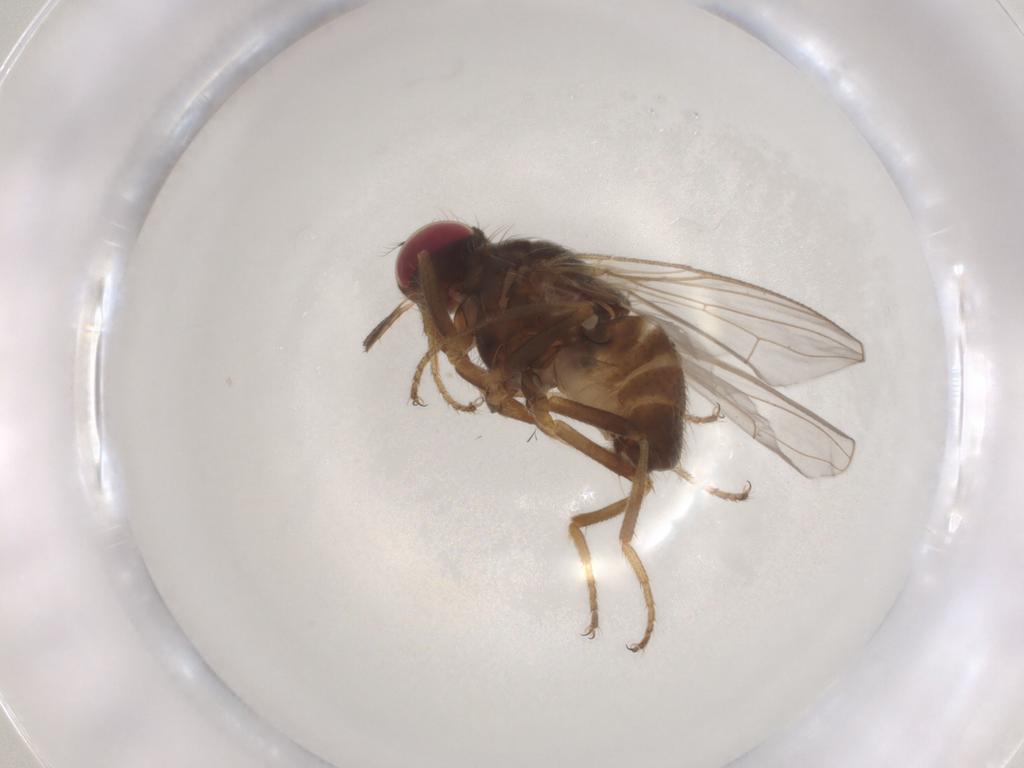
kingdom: Animalia
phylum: Arthropoda
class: Insecta
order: Diptera
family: Muscidae
